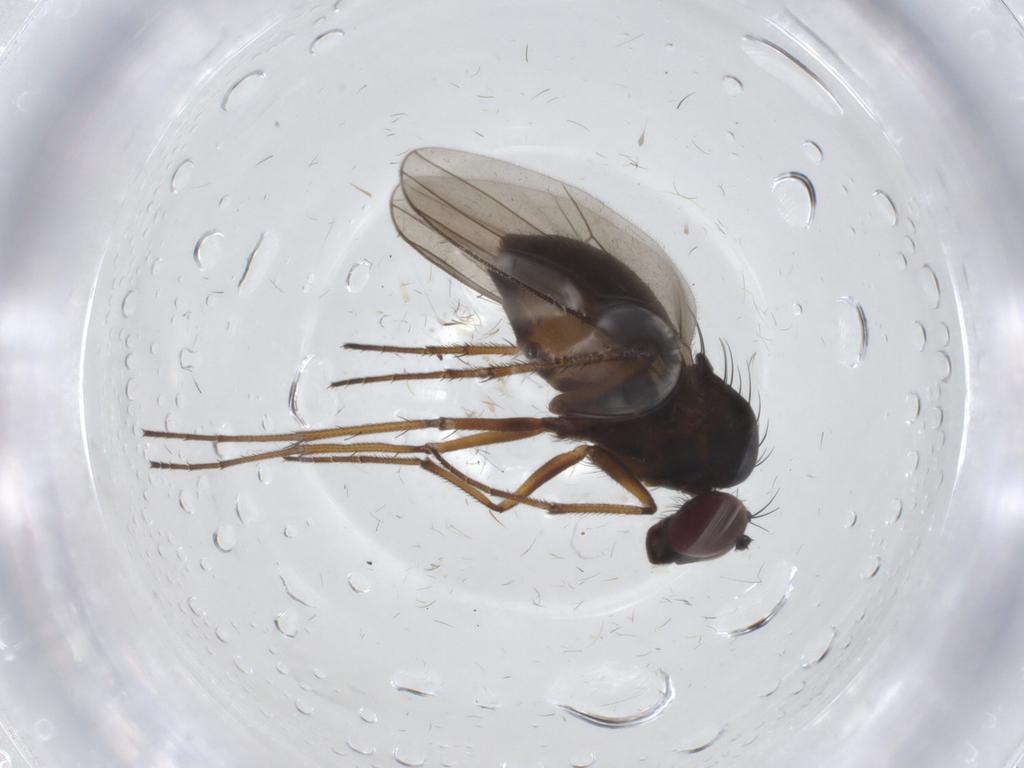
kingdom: Animalia
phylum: Arthropoda
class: Insecta
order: Diptera
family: Dolichopodidae
